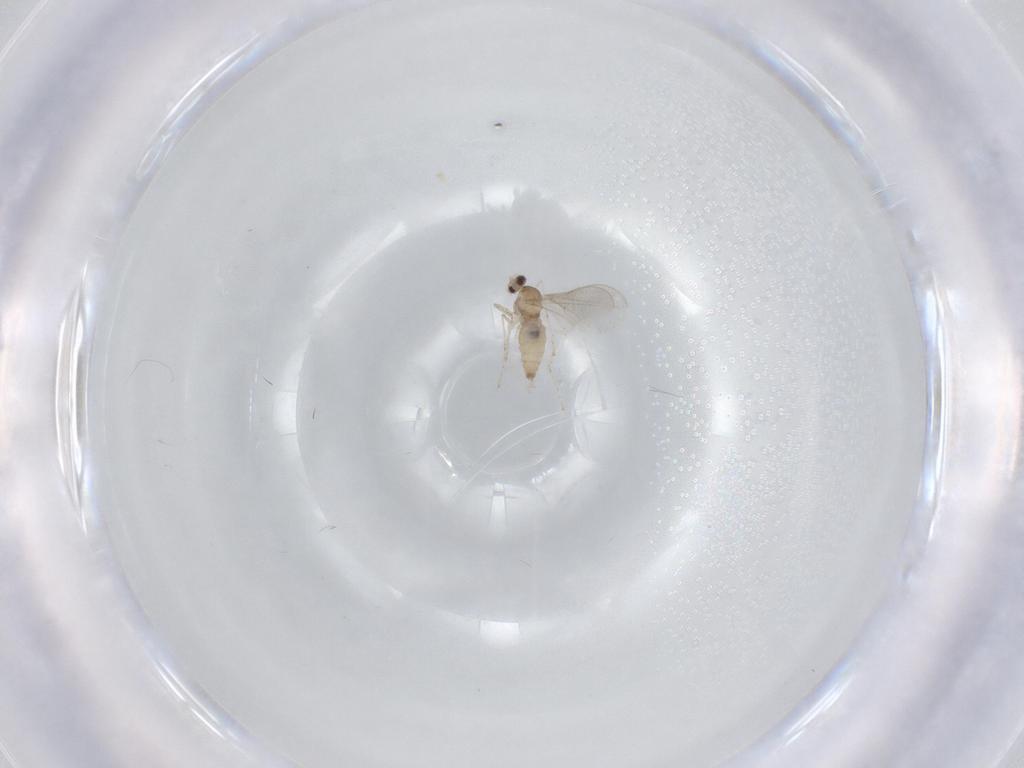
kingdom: Animalia
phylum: Arthropoda
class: Insecta
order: Diptera
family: Cecidomyiidae
